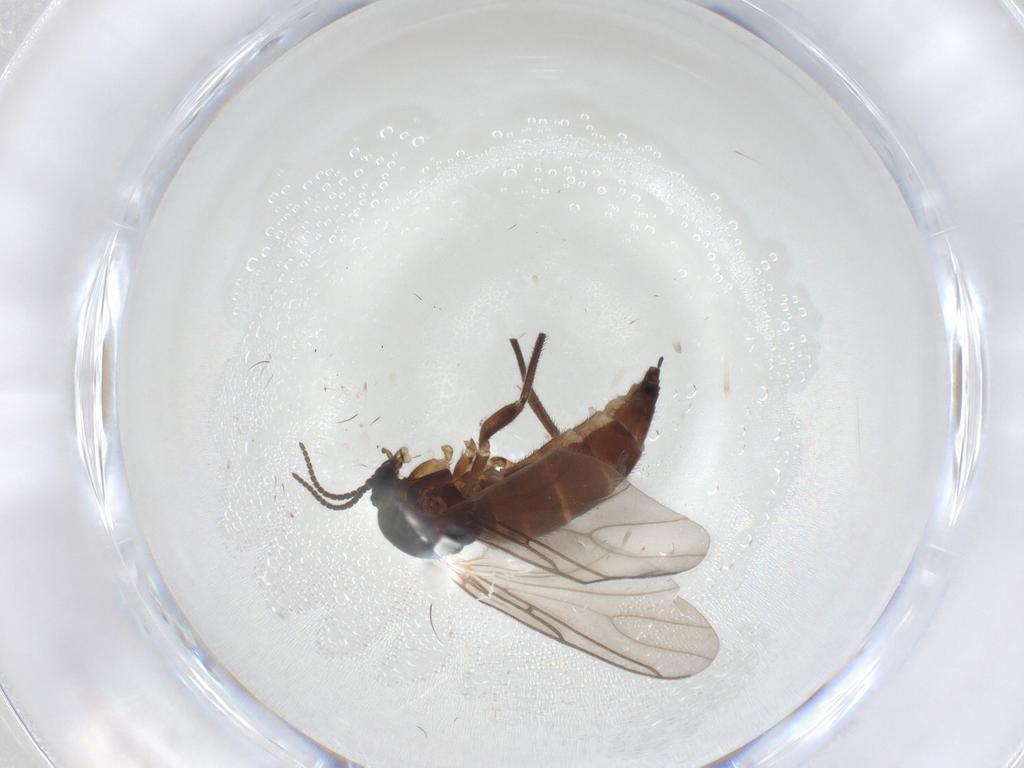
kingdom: Animalia
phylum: Arthropoda
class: Insecta
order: Diptera
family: Sciaridae
